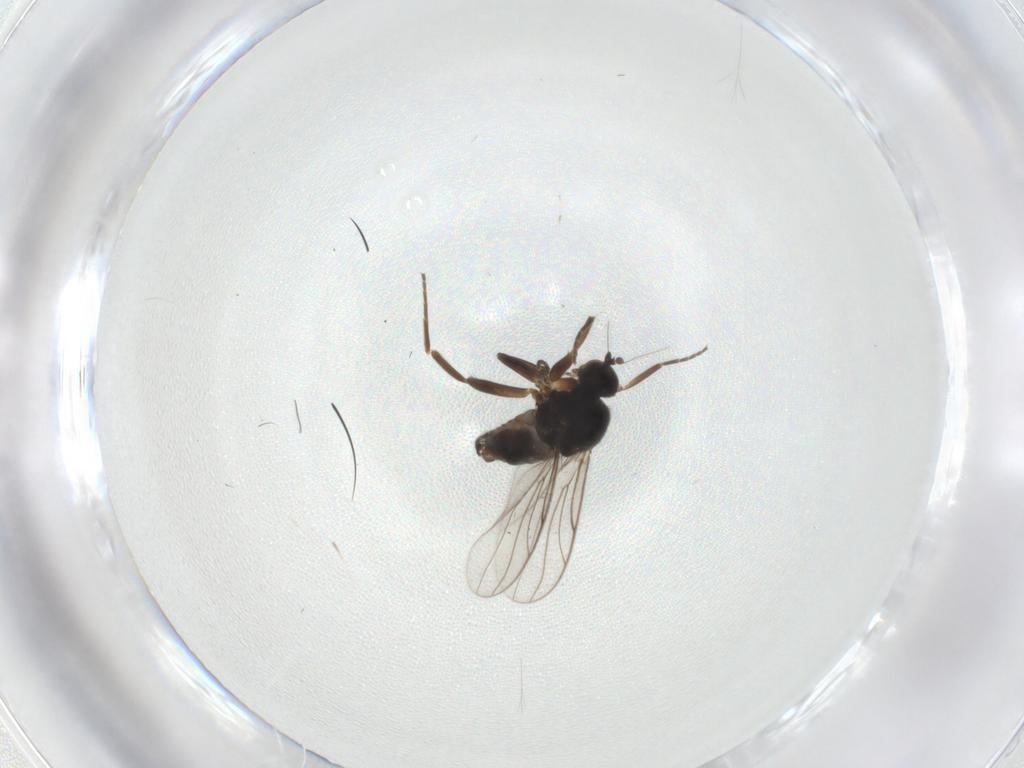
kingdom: Animalia
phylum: Arthropoda
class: Insecta
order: Diptera
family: Hybotidae
